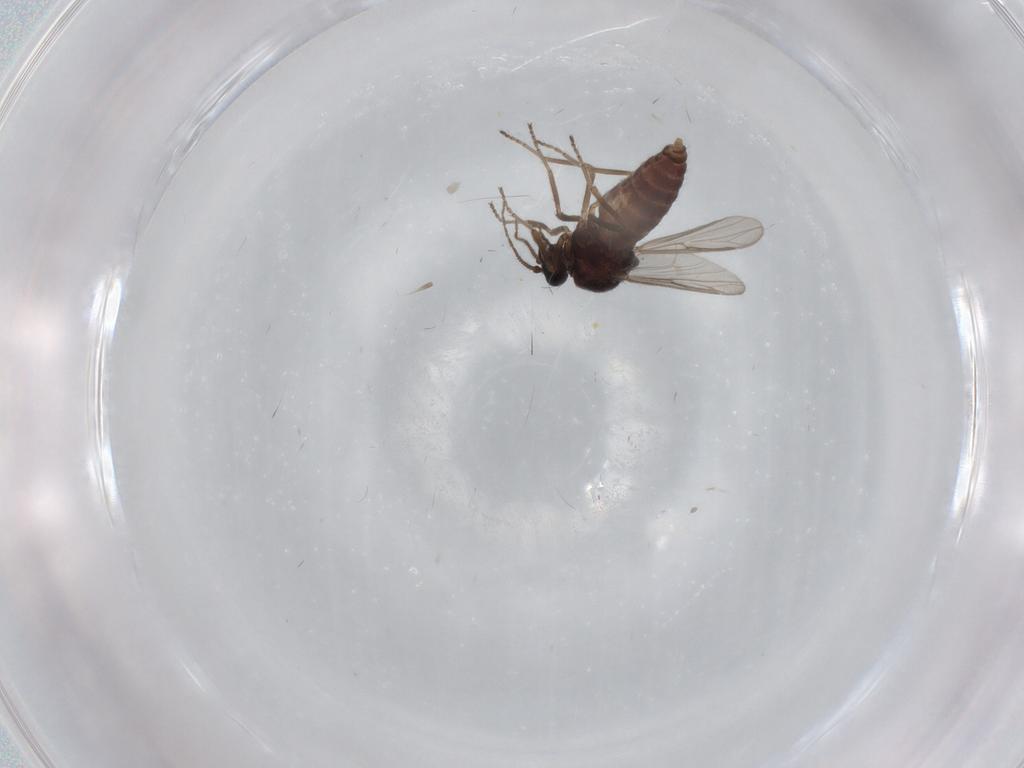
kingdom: Animalia
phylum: Arthropoda
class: Insecta
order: Diptera
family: Ceratopogonidae
